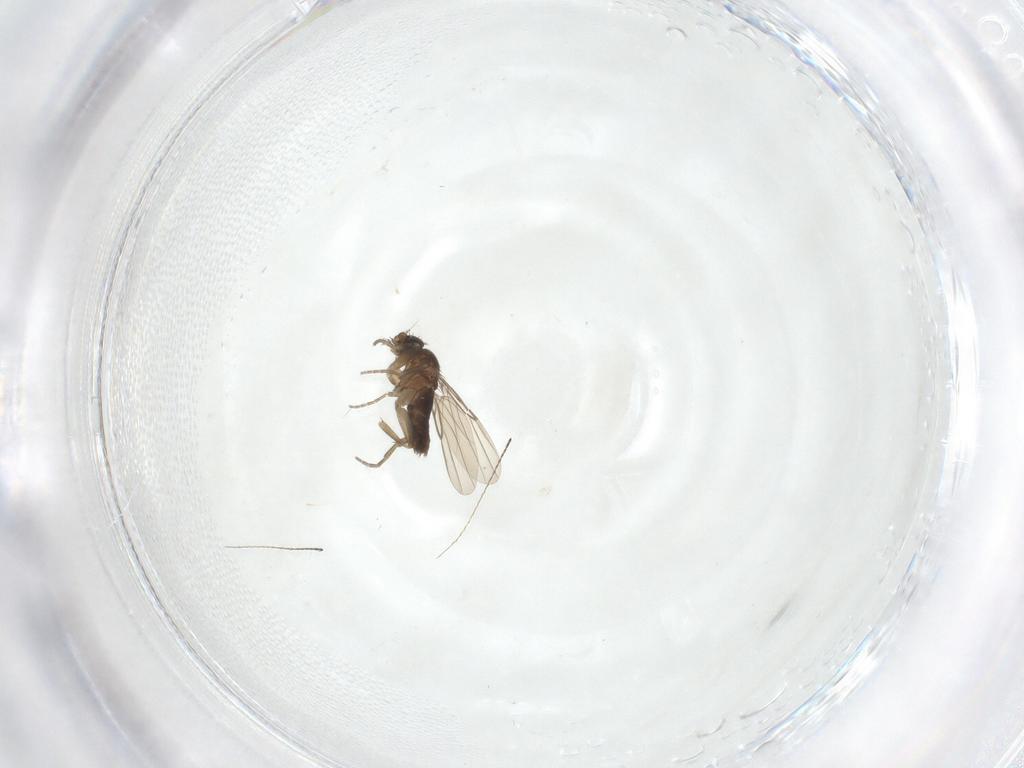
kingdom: Animalia
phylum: Arthropoda
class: Insecta
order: Diptera
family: Phoridae
